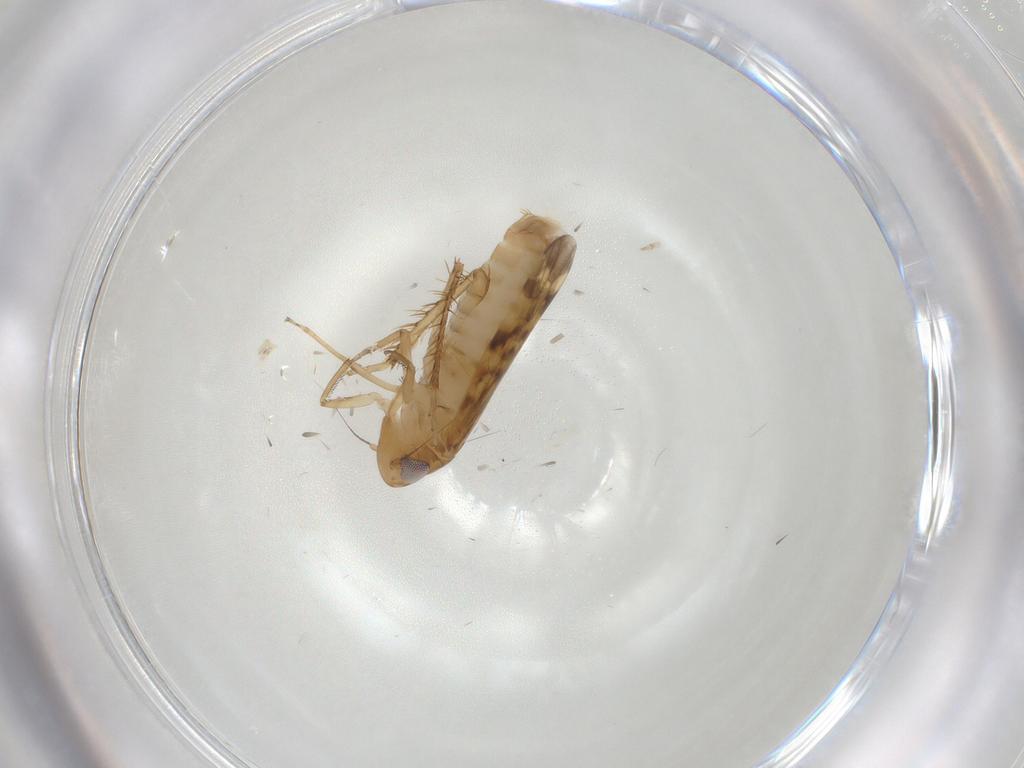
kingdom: Animalia
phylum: Arthropoda
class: Insecta
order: Hemiptera
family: Cicadellidae
